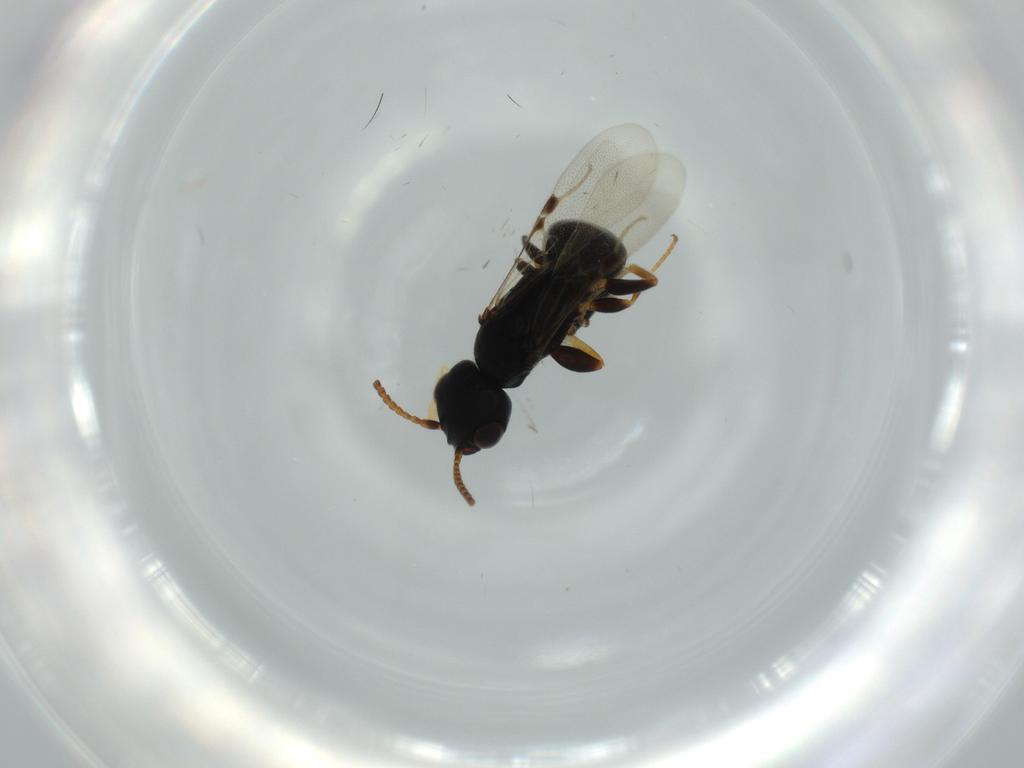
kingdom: Animalia
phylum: Arthropoda
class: Insecta
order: Hymenoptera
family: Bethylidae
